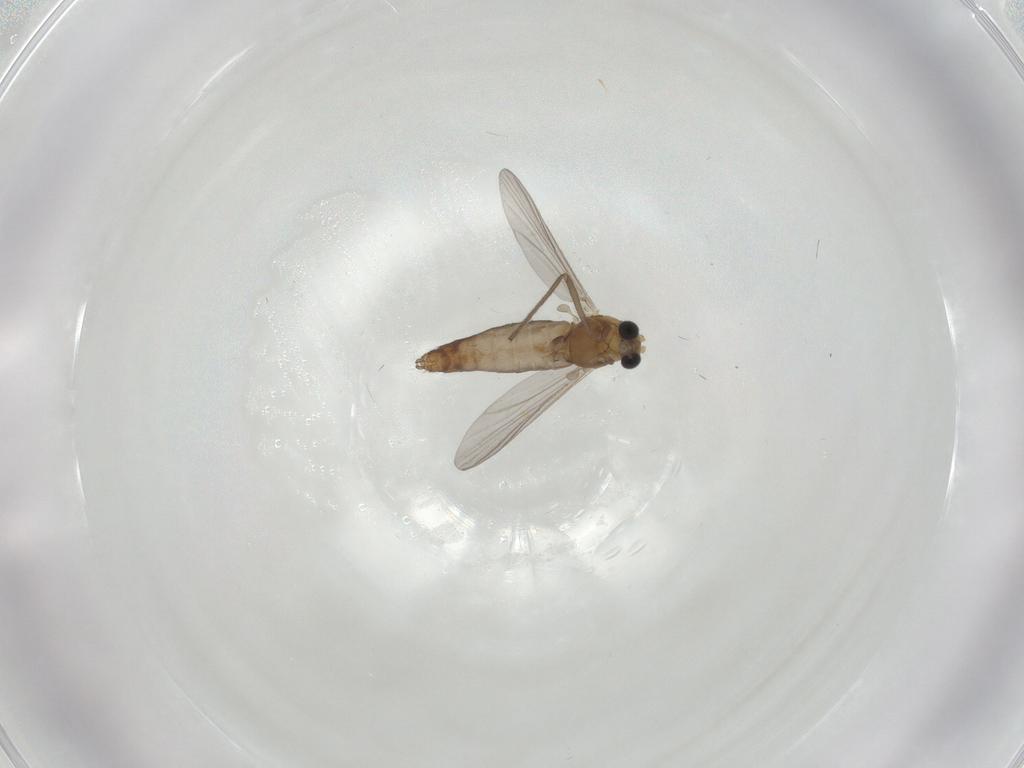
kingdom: Animalia
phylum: Arthropoda
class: Insecta
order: Diptera
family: Chironomidae
